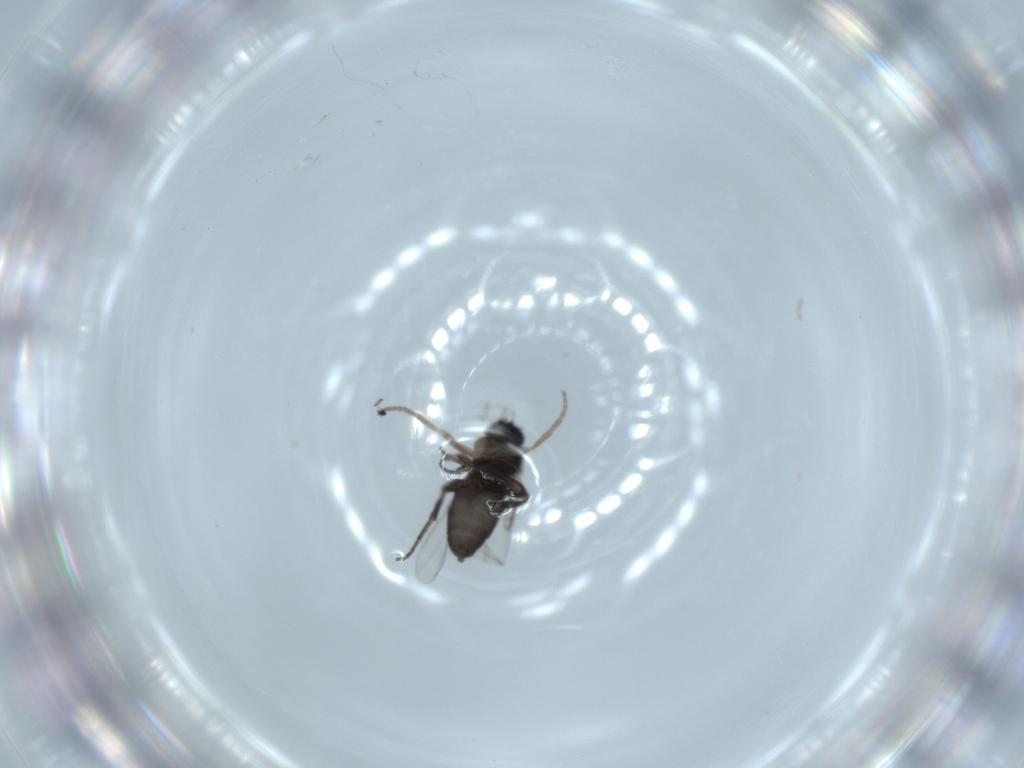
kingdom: Animalia
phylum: Arthropoda
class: Insecta
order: Diptera
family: Phoridae
